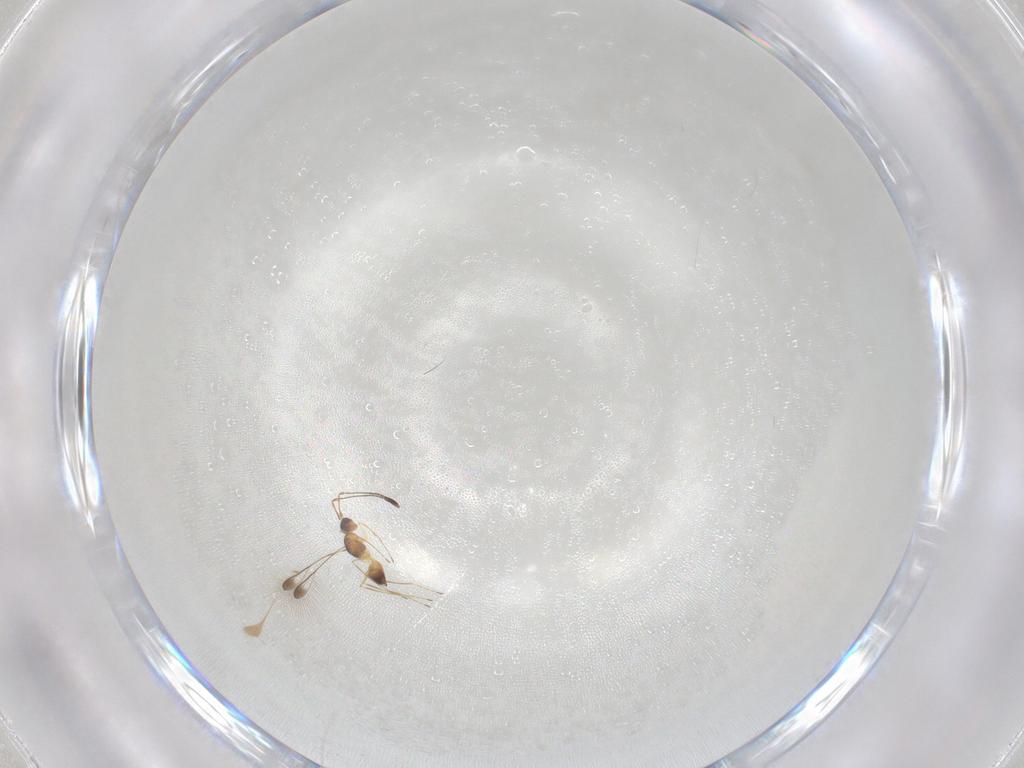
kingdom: Animalia
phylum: Arthropoda
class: Insecta
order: Hymenoptera
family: Mymaridae
